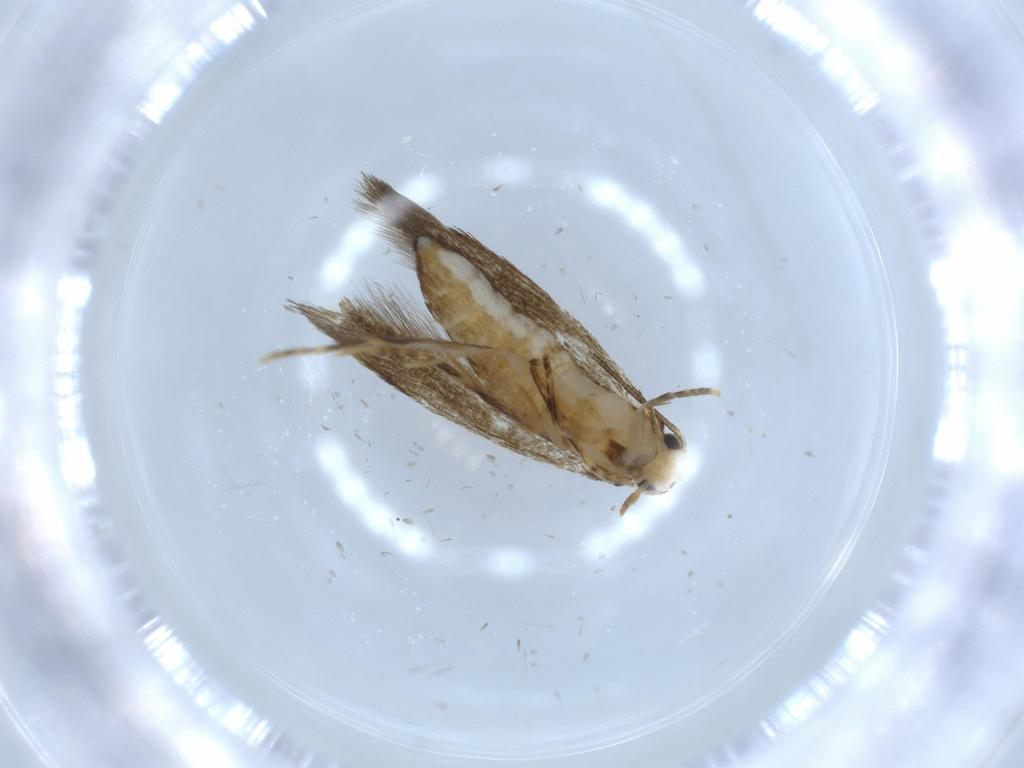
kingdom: Animalia
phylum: Arthropoda
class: Insecta
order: Lepidoptera
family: Tineidae
